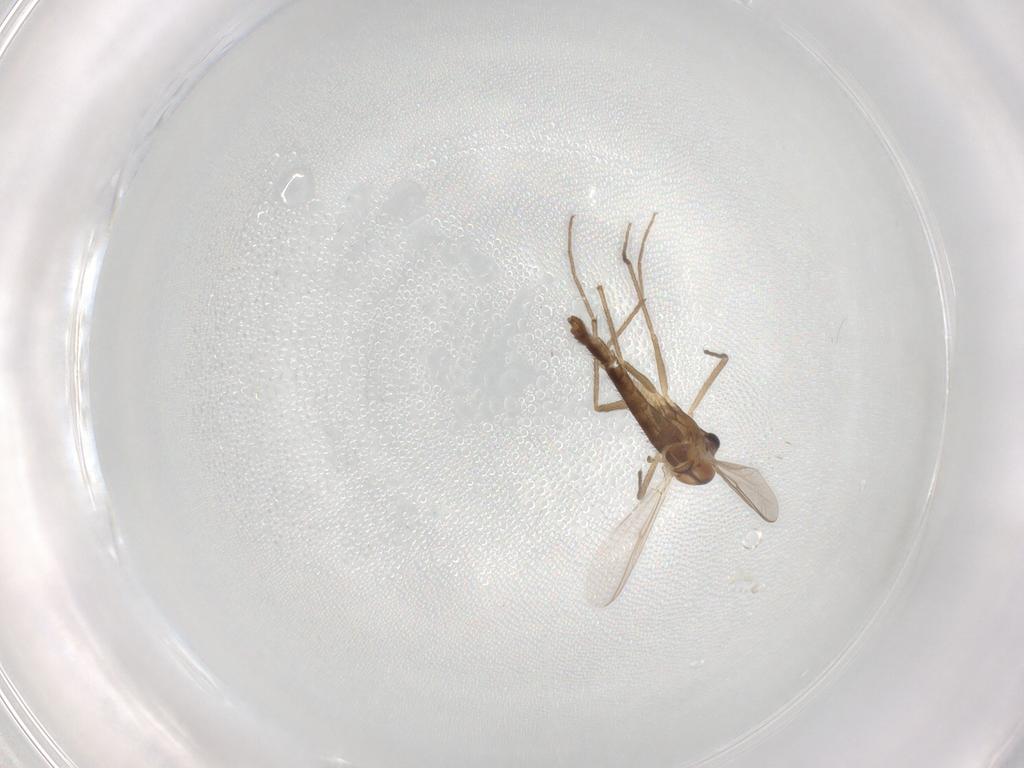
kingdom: Animalia
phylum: Arthropoda
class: Insecta
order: Diptera
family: Chironomidae
